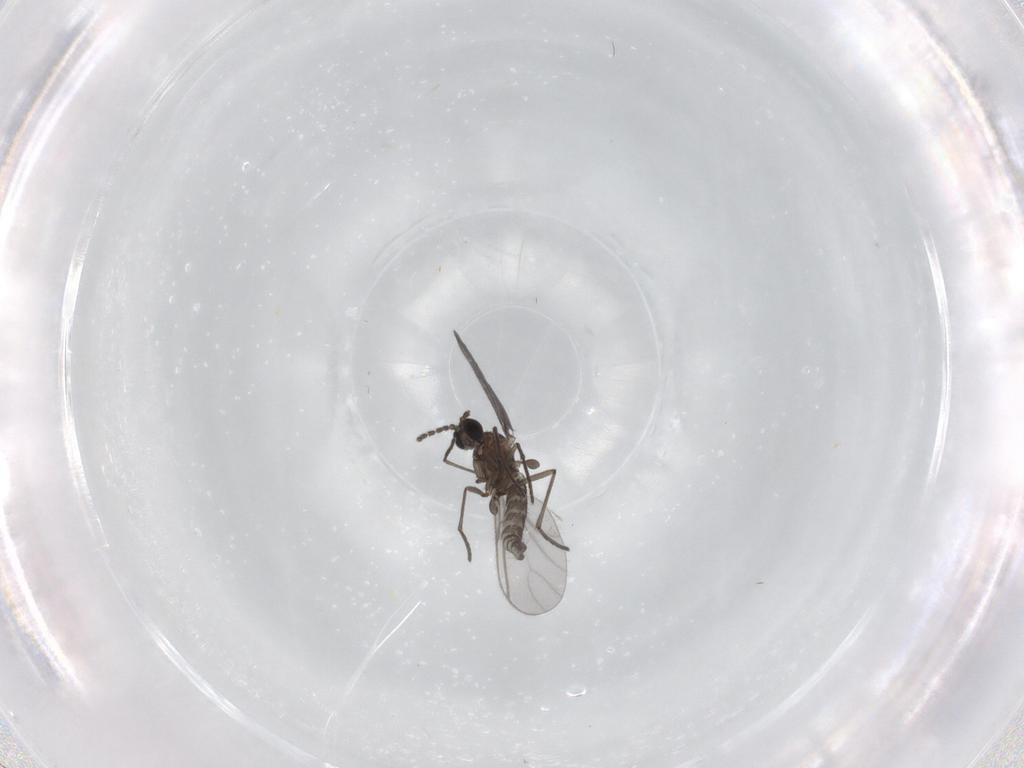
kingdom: Animalia
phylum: Arthropoda
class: Insecta
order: Diptera
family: Sciaridae
